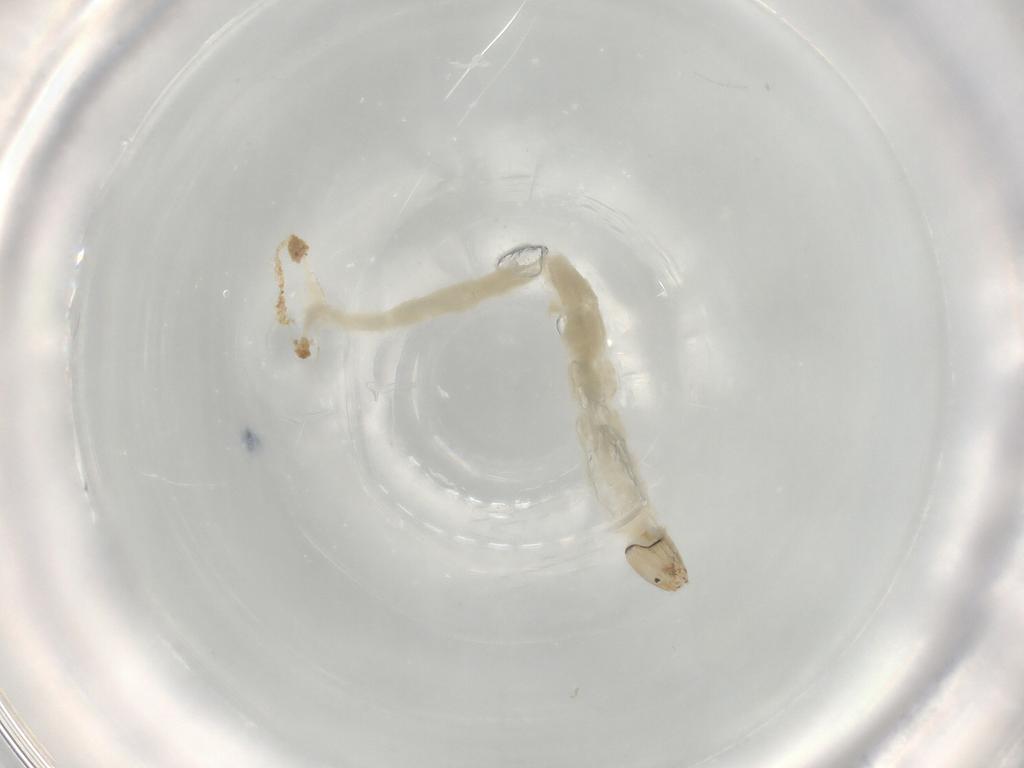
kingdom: Animalia
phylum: Arthropoda
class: Insecta
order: Diptera
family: Chironomidae
